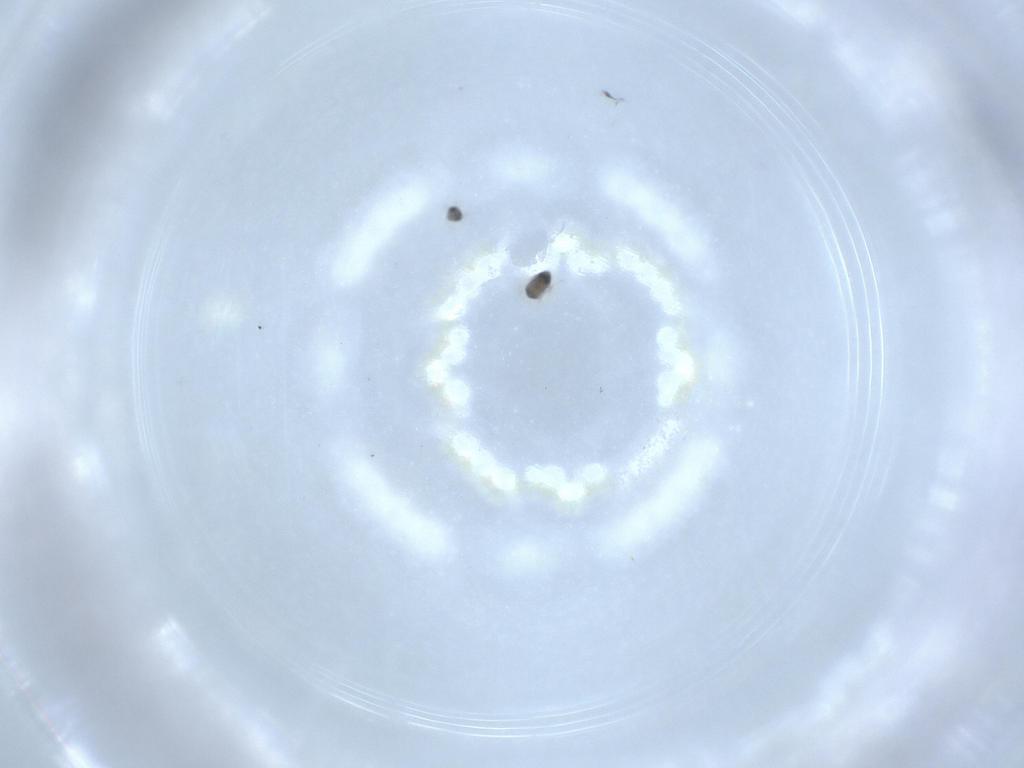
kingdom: Animalia
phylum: Arthropoda
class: Insecta
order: Hymenoptera
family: Mymaridae
